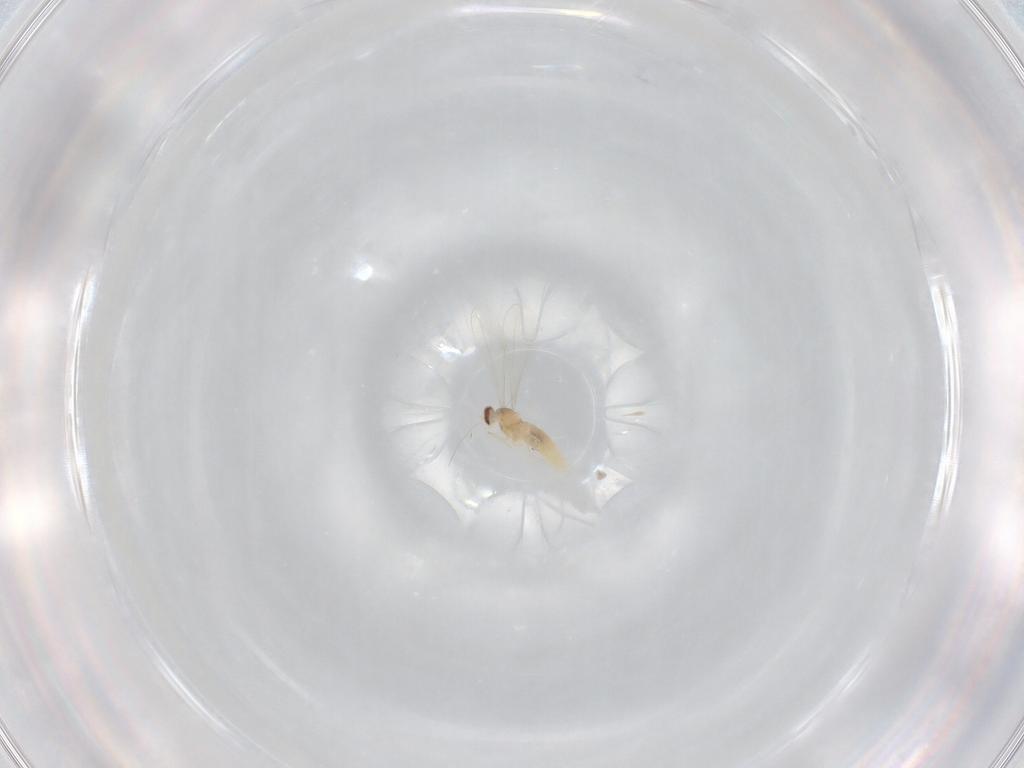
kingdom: Animalia
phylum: Arthropoda
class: Insecta
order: Diptera
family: Cecidomyiidae
